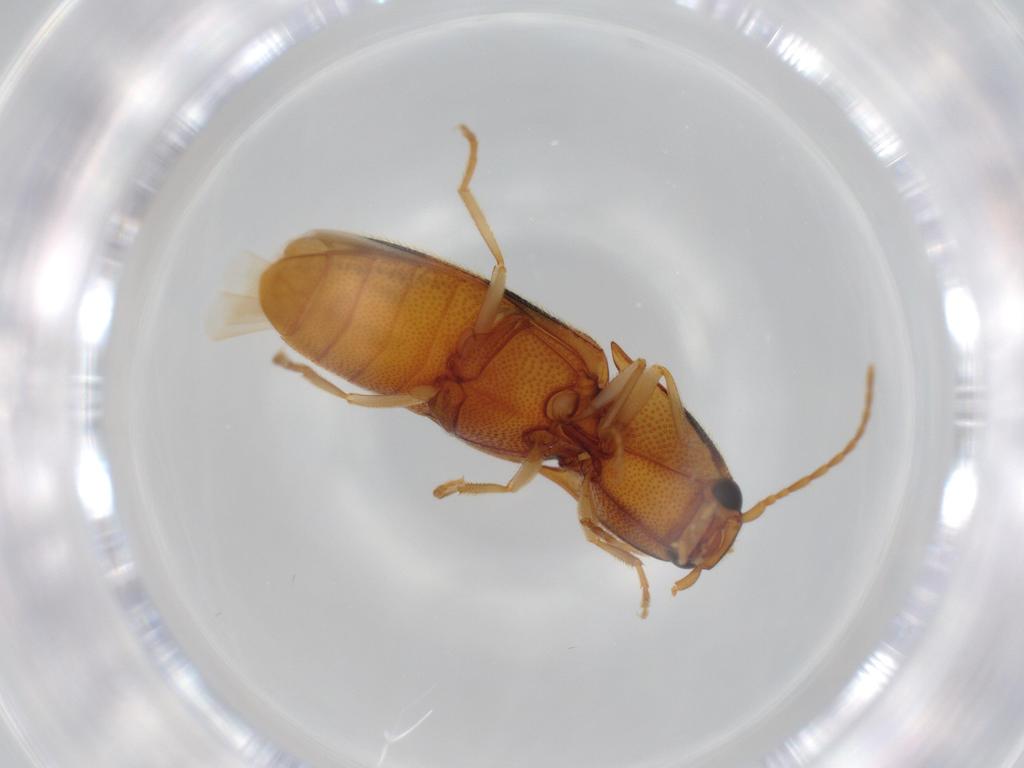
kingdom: Animalia
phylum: Arthropoda
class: Insecta
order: Coleoptera
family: Elateridae
